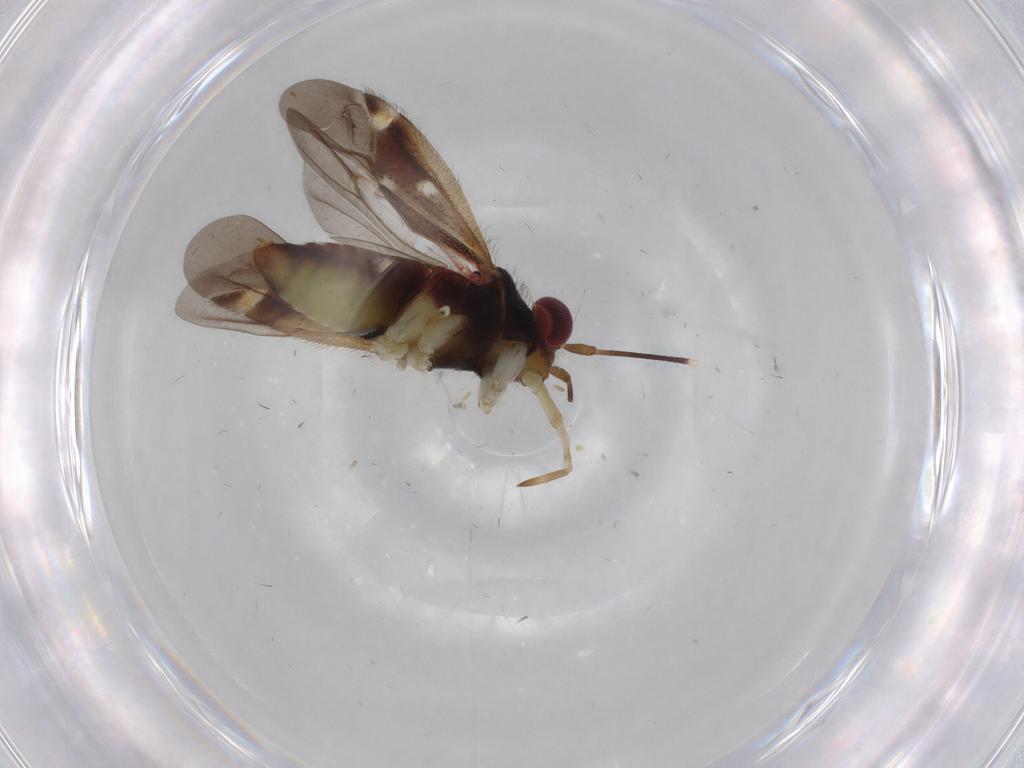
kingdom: Animalia
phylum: Arthropoda
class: Insecta
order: Hemiptera
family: Miridae
